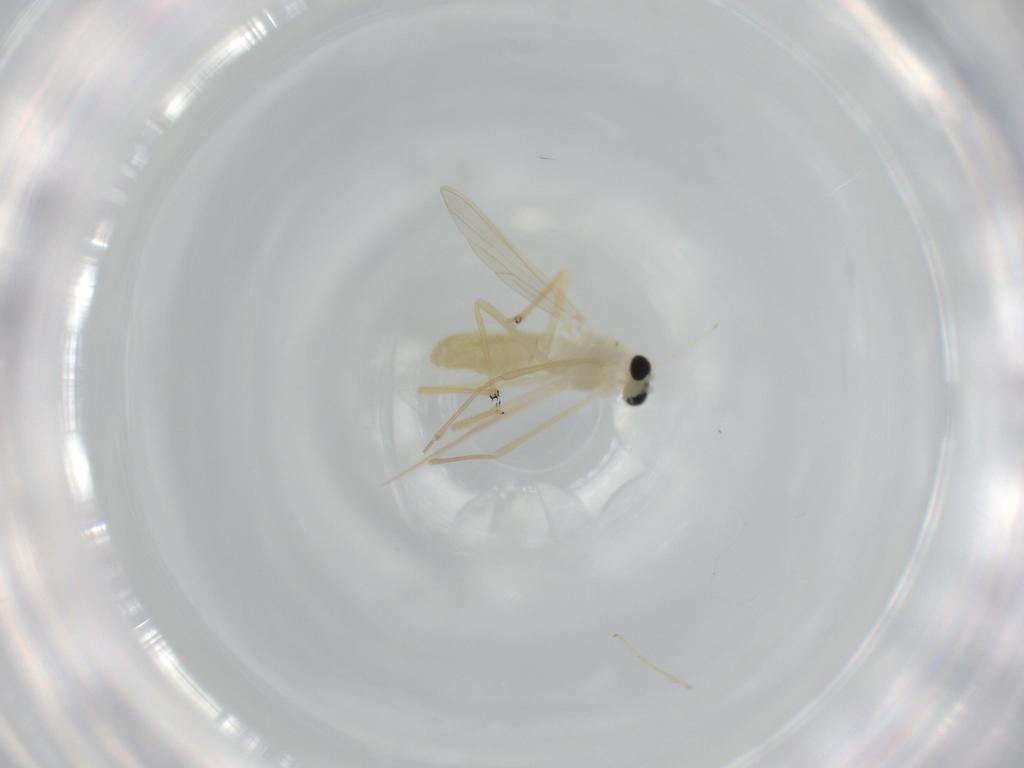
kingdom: Animalia
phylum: Arthropoda
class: Insecta
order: Diptera
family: Chironomidae
